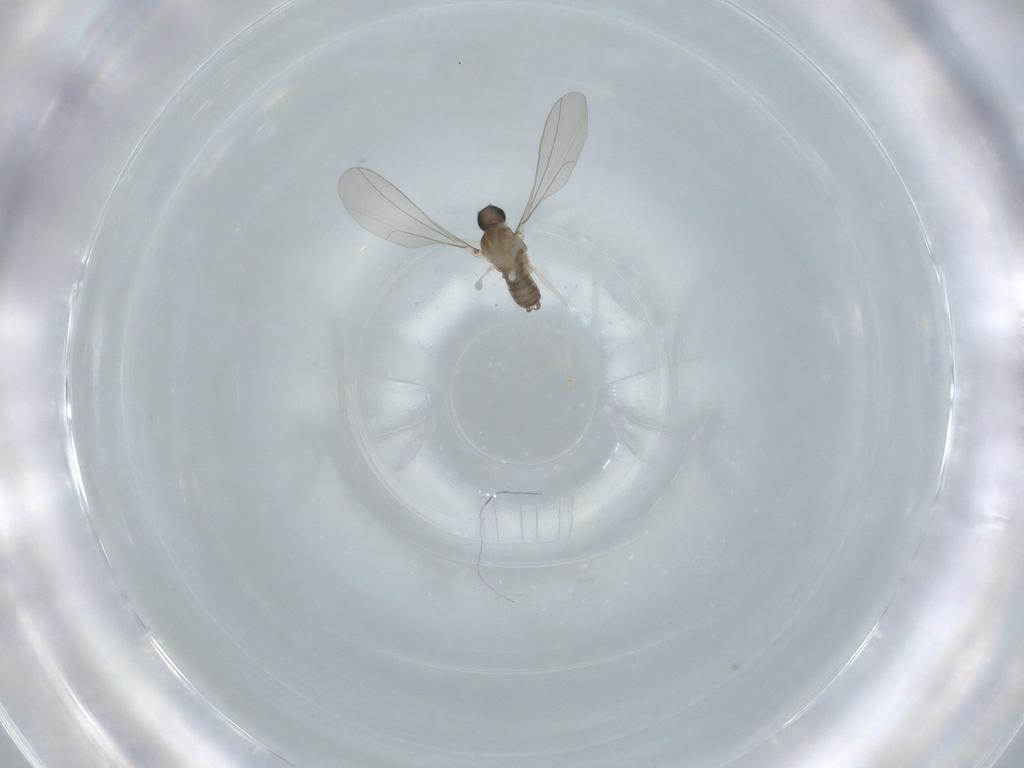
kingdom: Animalia
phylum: Arthropoda
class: Insecta
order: Diptera
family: Cecidomyiidae
